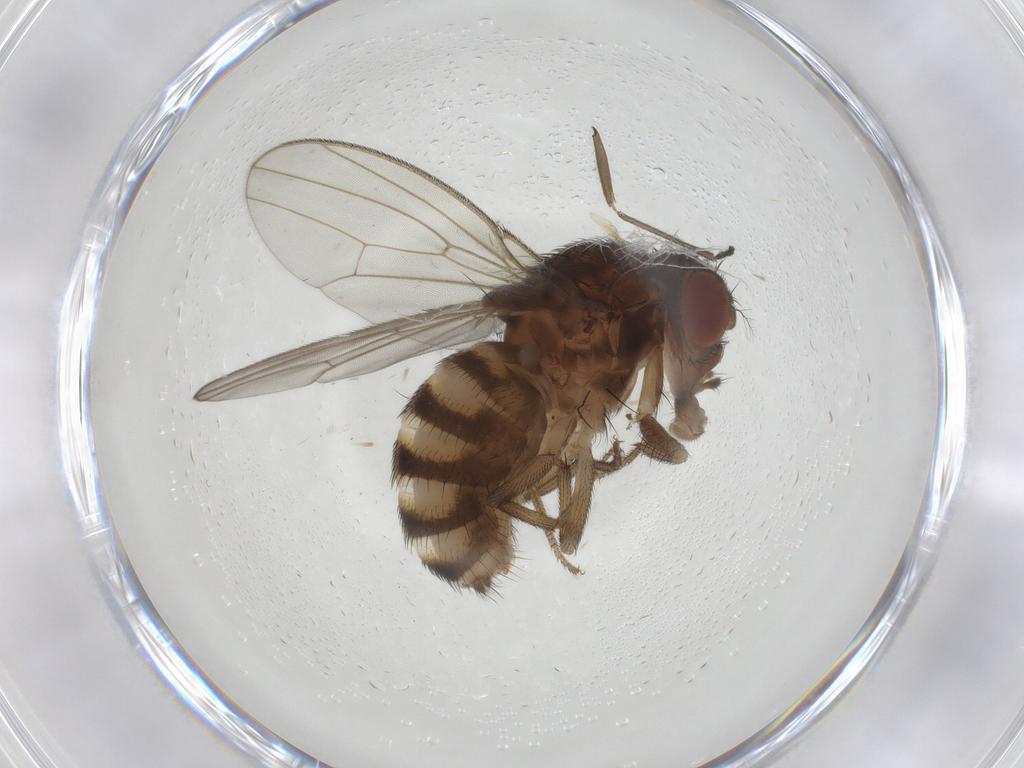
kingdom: Animalia
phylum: Arthropoda
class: Insecta
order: Diptera
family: Drosophilidae
